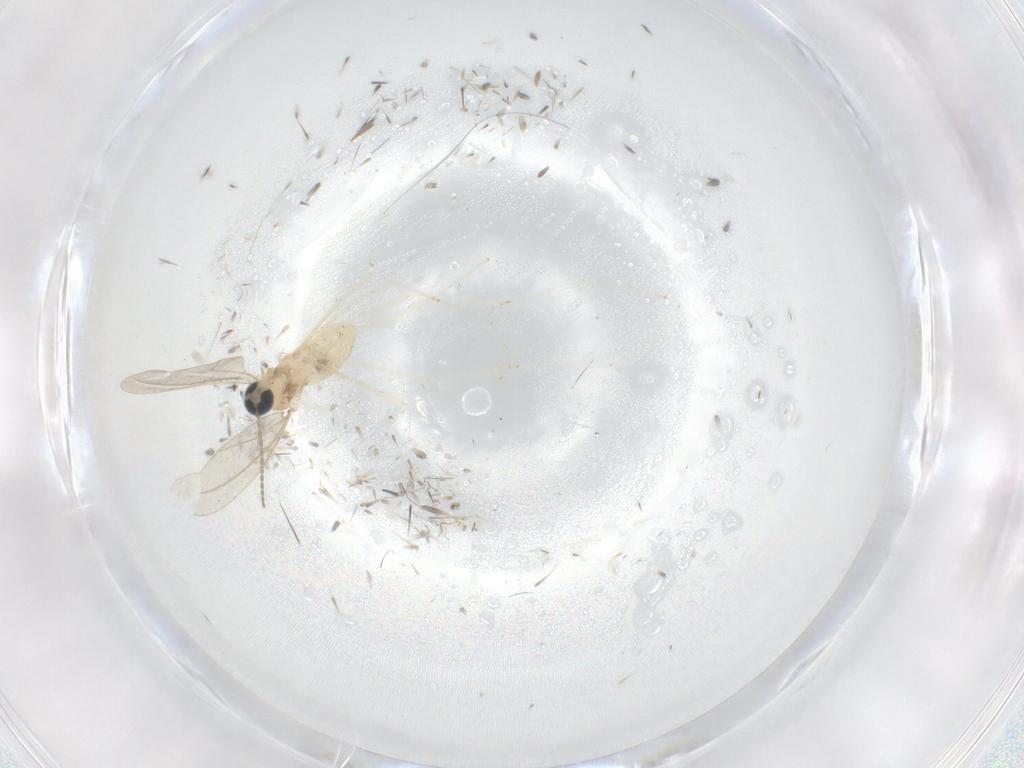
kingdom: Animalia
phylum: Arthropoda
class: Insecta
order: Diptera
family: Cecidomyiidae
